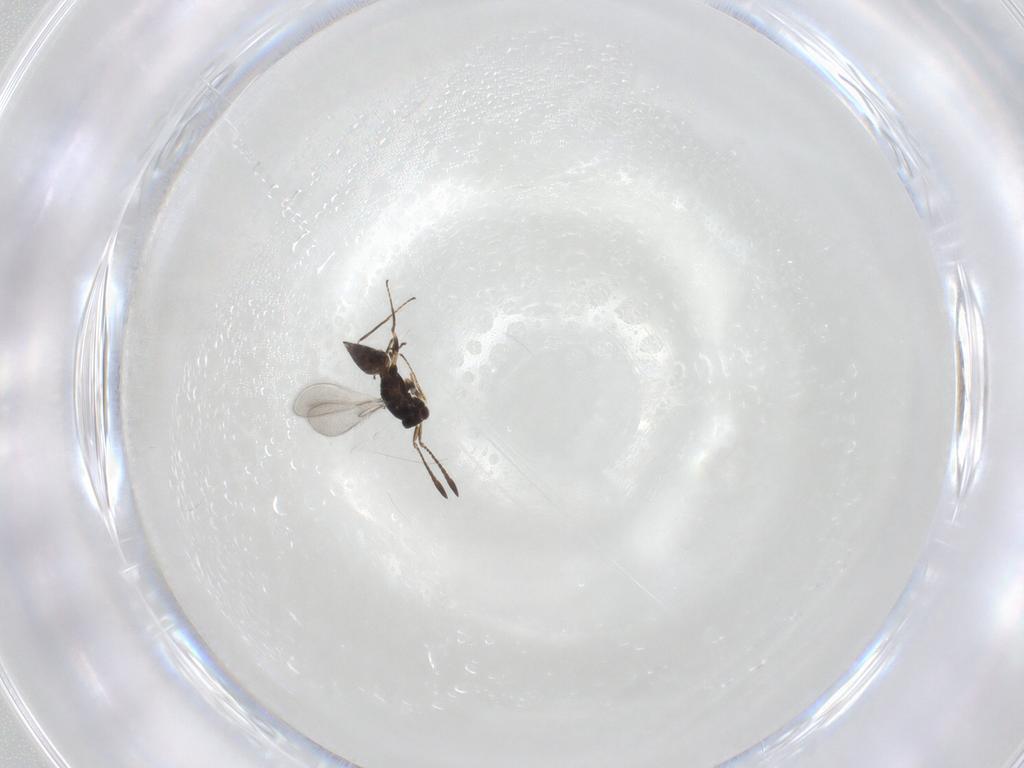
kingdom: Animalia
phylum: Arthropoda
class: Insecta
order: Hymenoptera
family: Mymaridae
